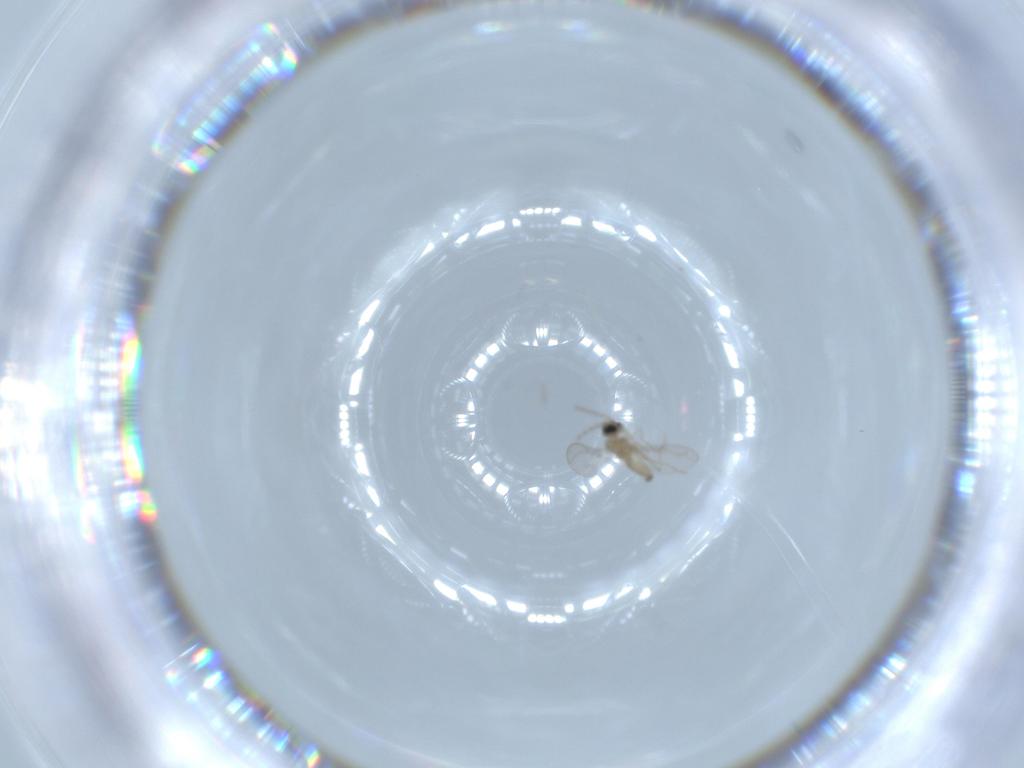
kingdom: Animalia
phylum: Arthropoda
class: Insecta
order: Diptera
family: Cecidomyiidae
